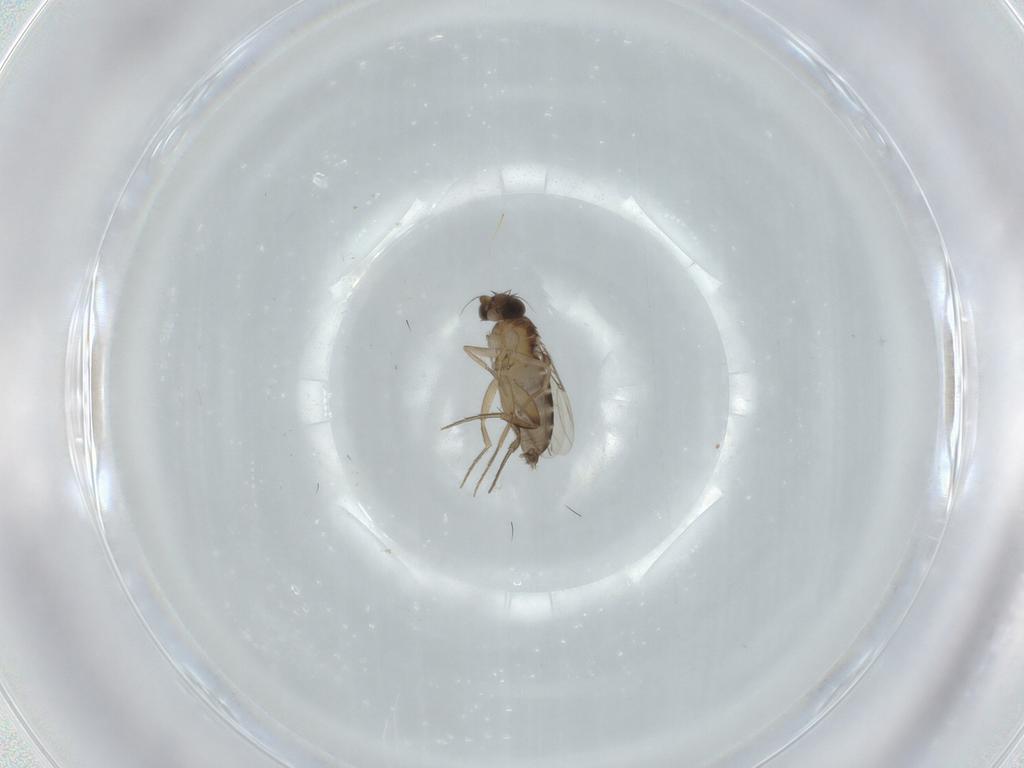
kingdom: Animalia
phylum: Arthropoda
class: Insecta
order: Diptera
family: Phoridae
